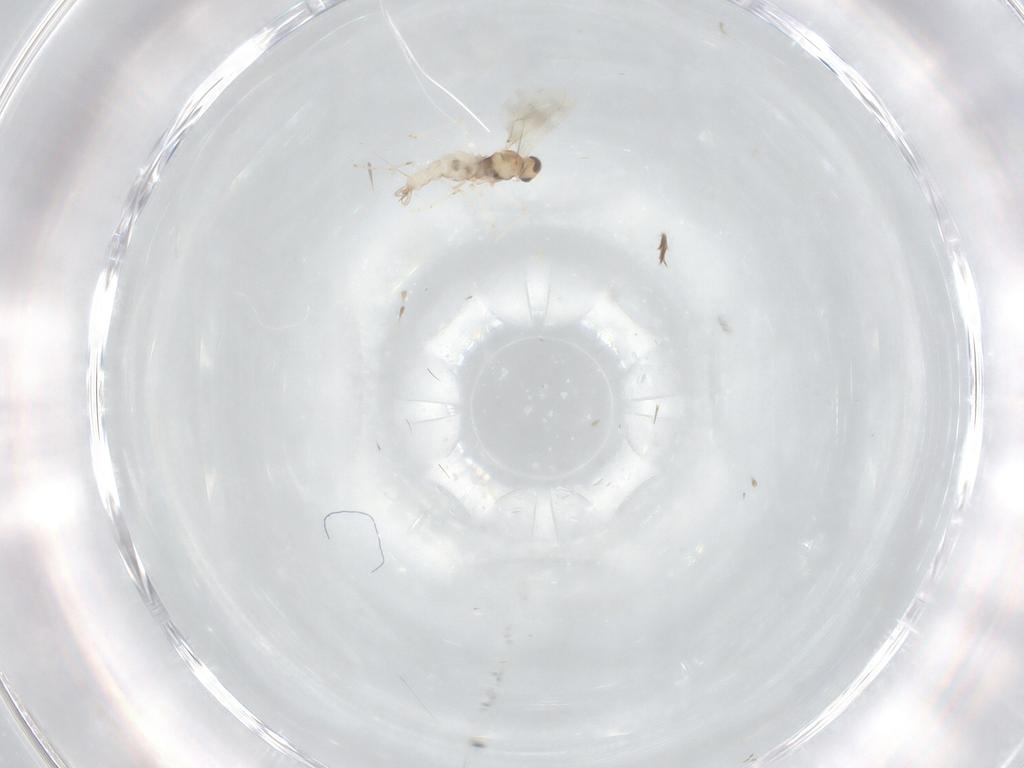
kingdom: Animalia
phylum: Arthropoda
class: Insecta
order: Diptera
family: Cecidomyiidae
